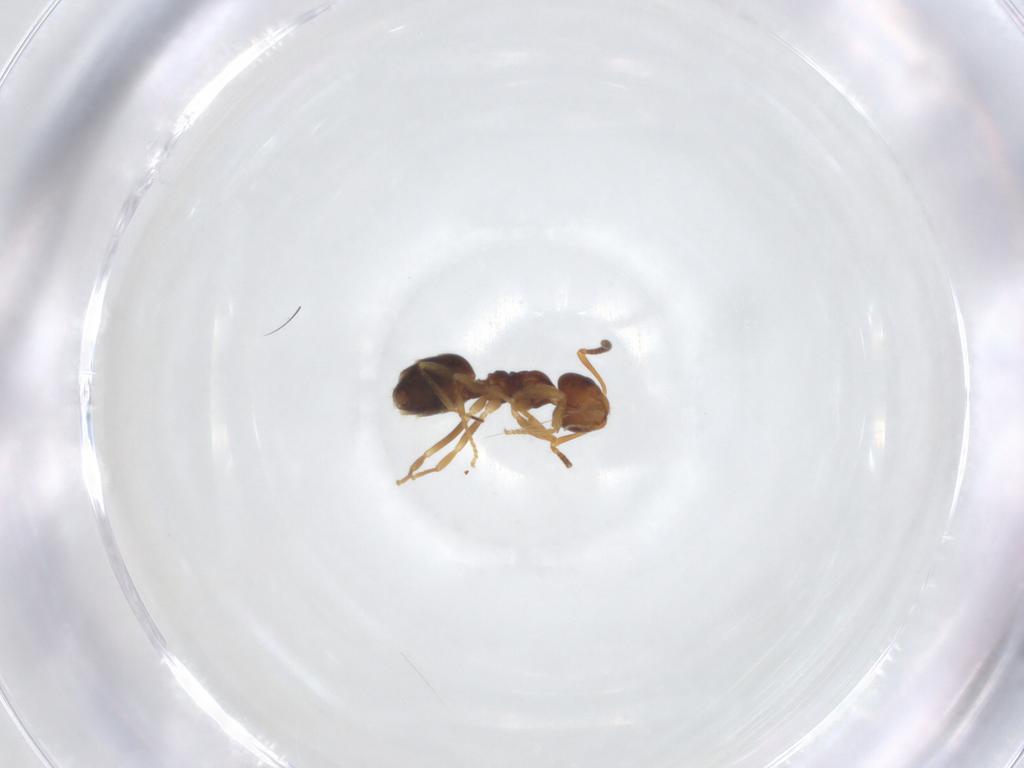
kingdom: Animalia
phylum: Arthropoda
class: Insecta
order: Hymenoptera
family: Formicidae
